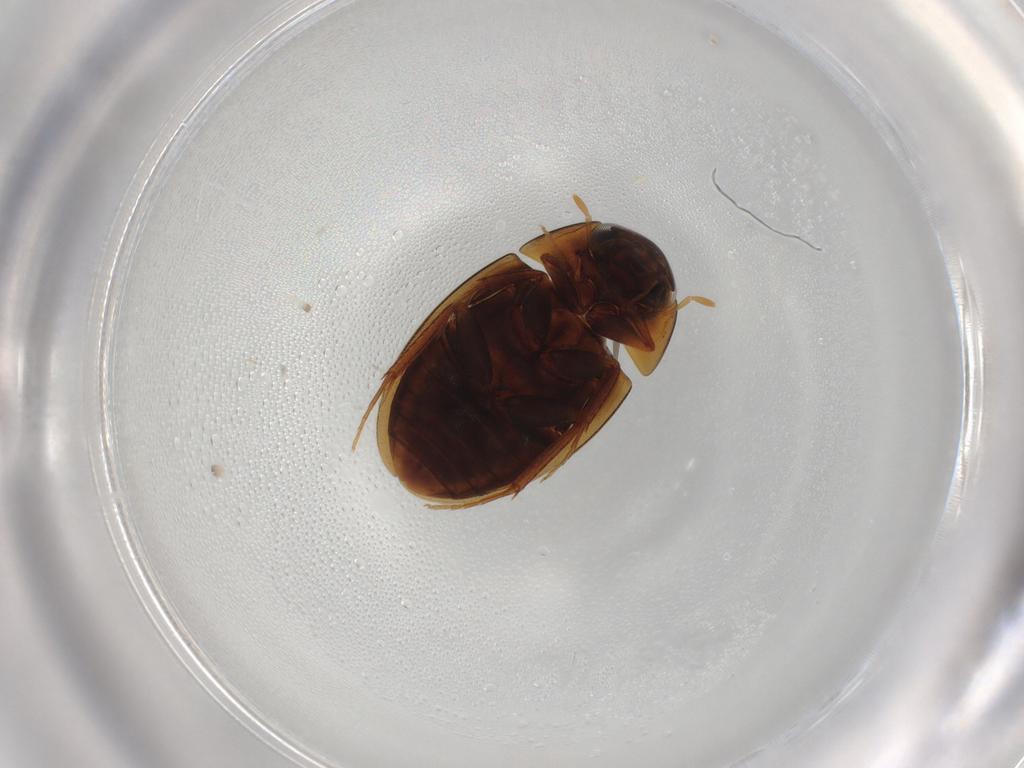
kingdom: Animalia
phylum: Arthropoda
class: Insecta
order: Coleoptera
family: Hydrophilidae
